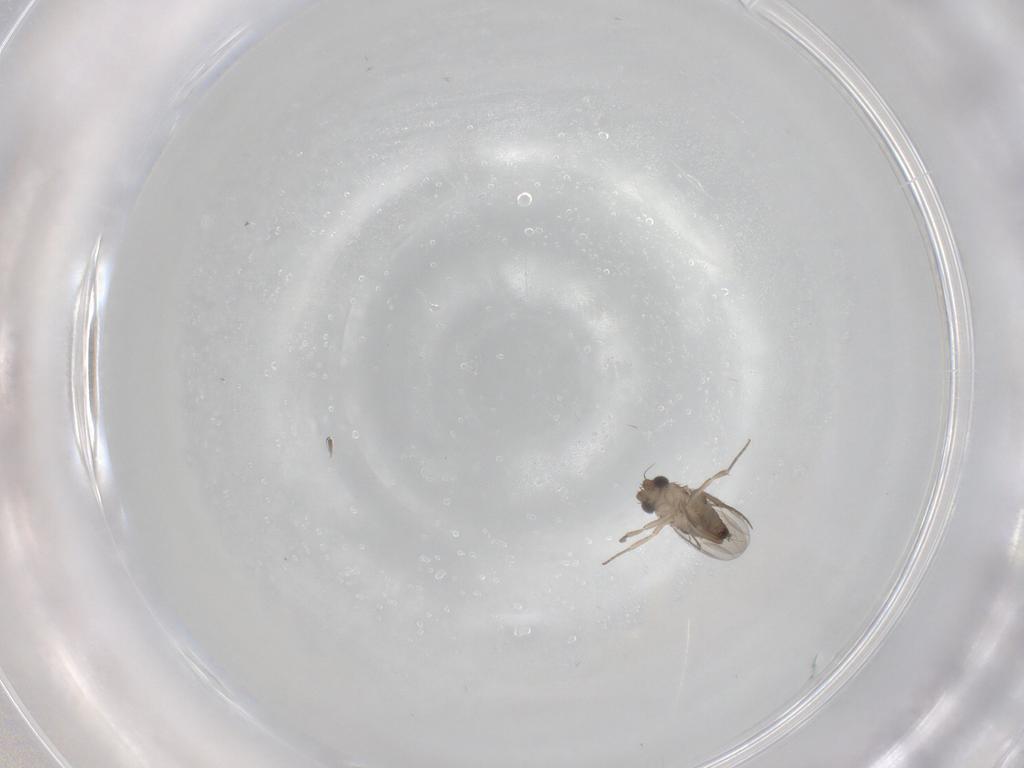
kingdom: Animalia
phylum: Arthropoda
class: Insecta
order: Diptera
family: Phoridae
